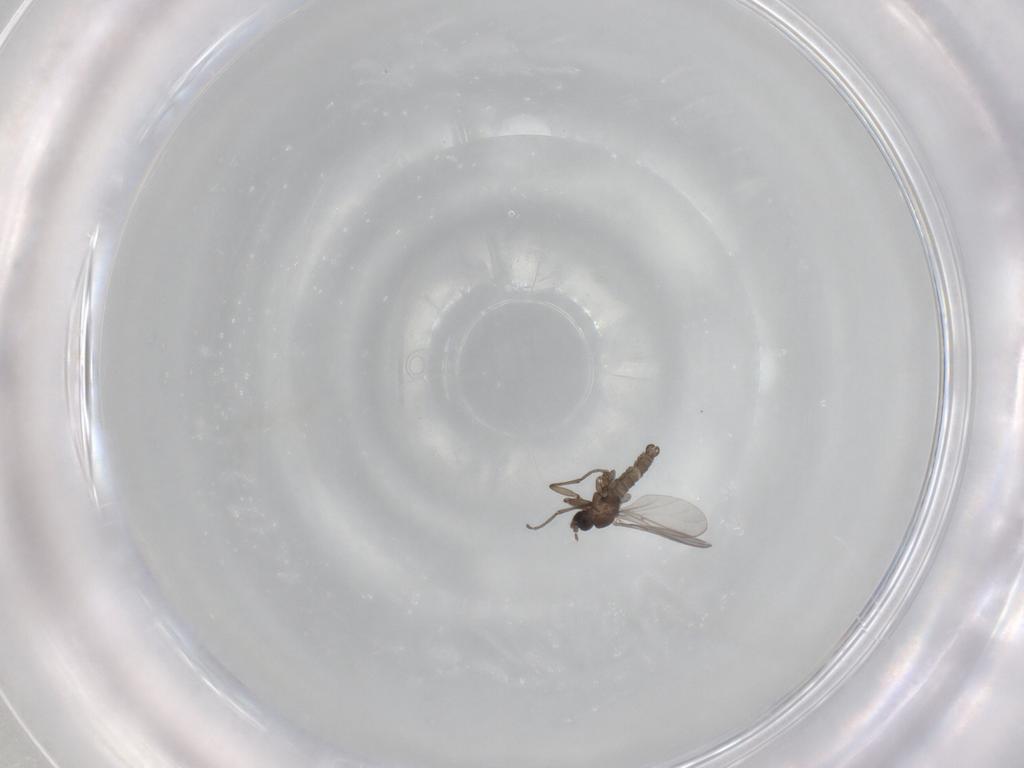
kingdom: Animalia
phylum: Arthropoda
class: Insecta
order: Diptera
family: Sciaridae
